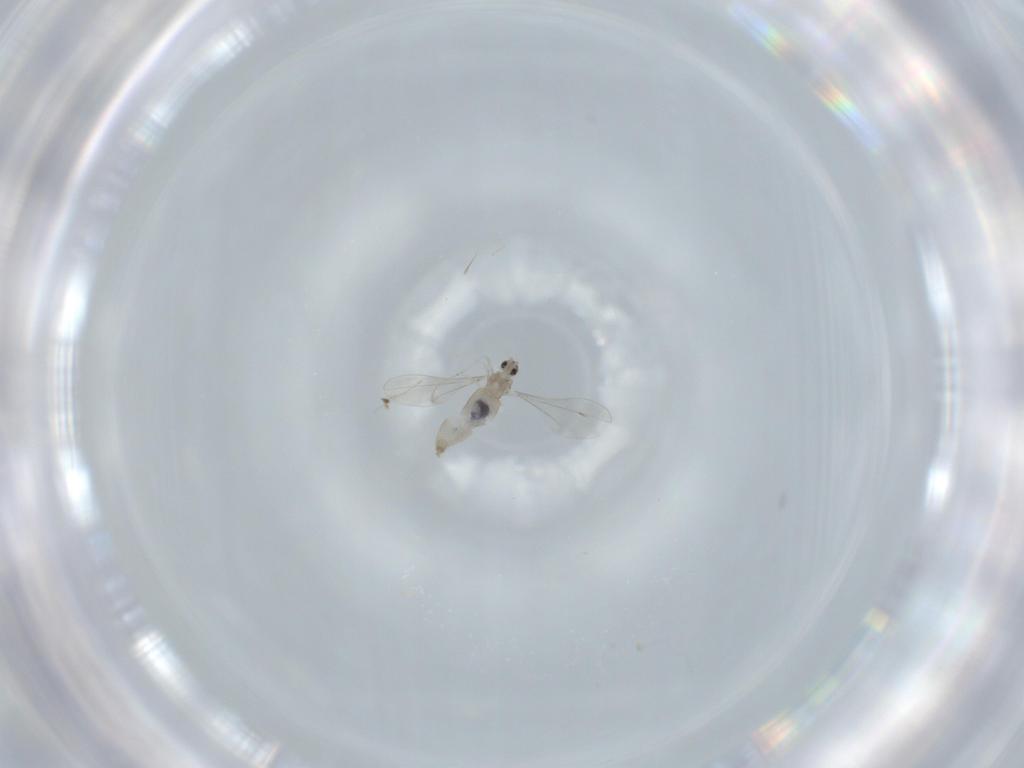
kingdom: Animalia
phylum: Arthropoda
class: Insecta
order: Diptera
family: Cecidomyiidae
